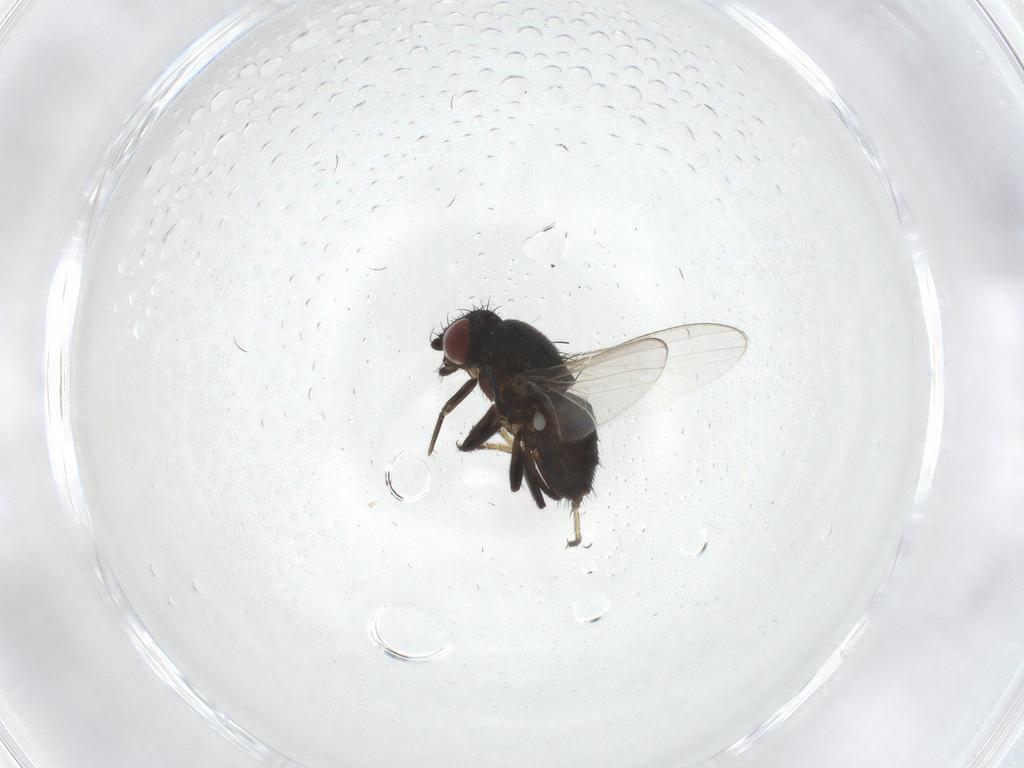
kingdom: Animalia
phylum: Arthropoda
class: Insecta
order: Diptera
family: Milichiidae
